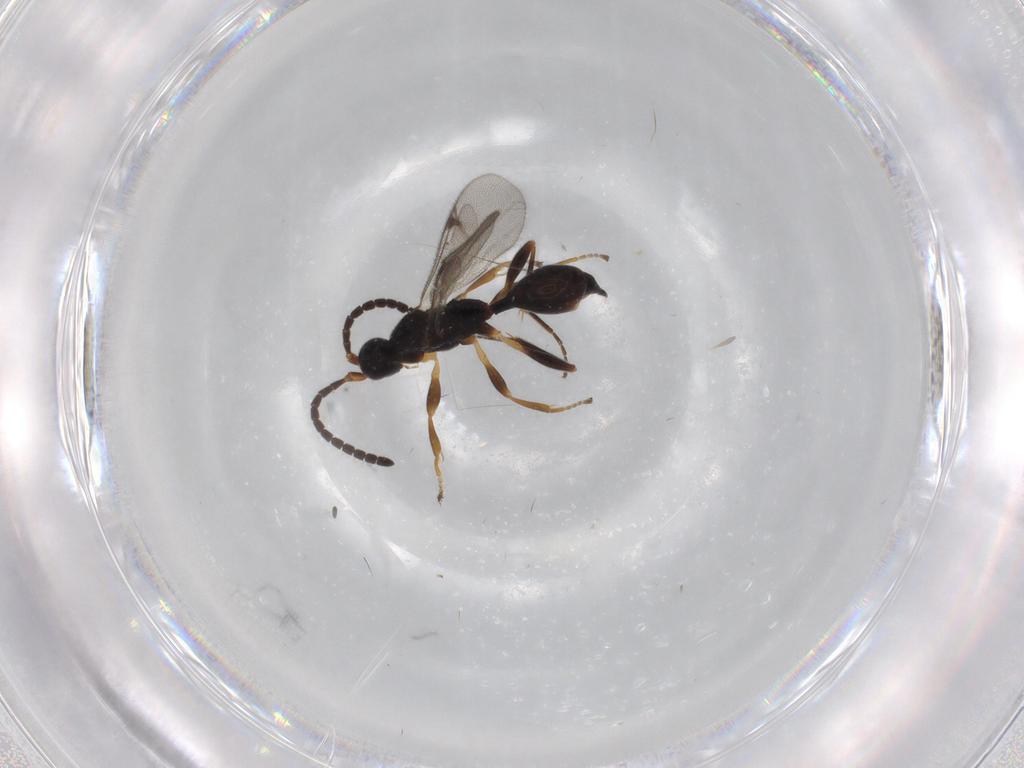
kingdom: Animalia
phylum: Arthropoda
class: Insecta
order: Hymenoptera
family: Proctotrupidae
